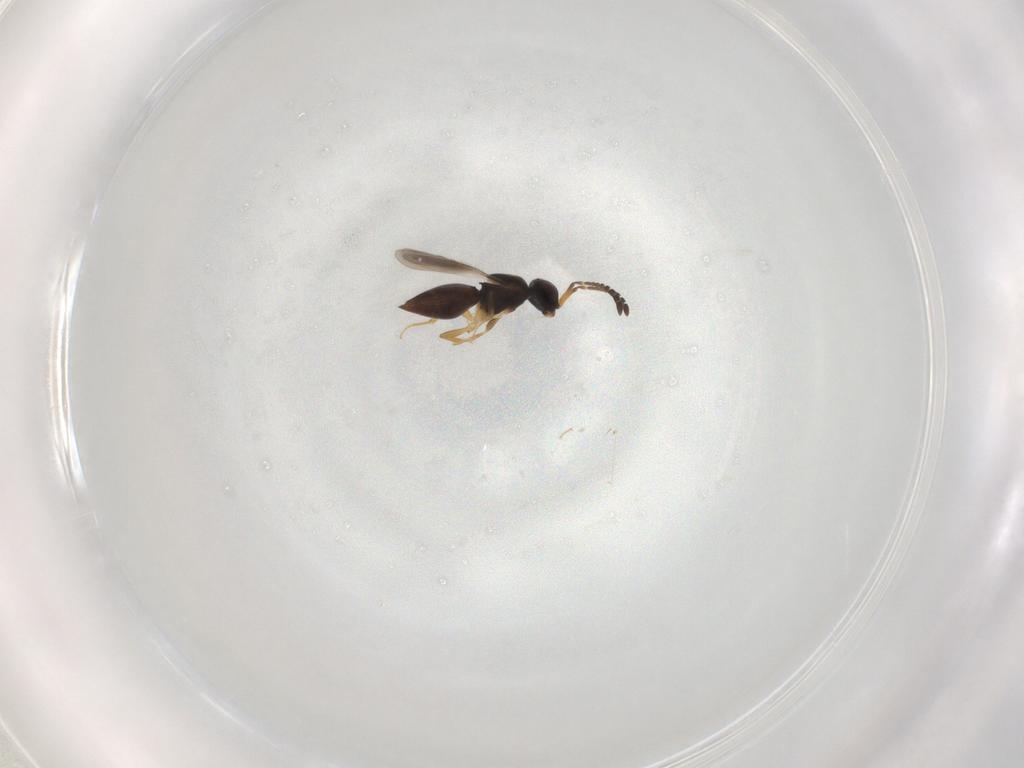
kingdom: Animalia
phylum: Arthropoda
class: Insecta
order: Hymenoptera
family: Ceraphronidae
